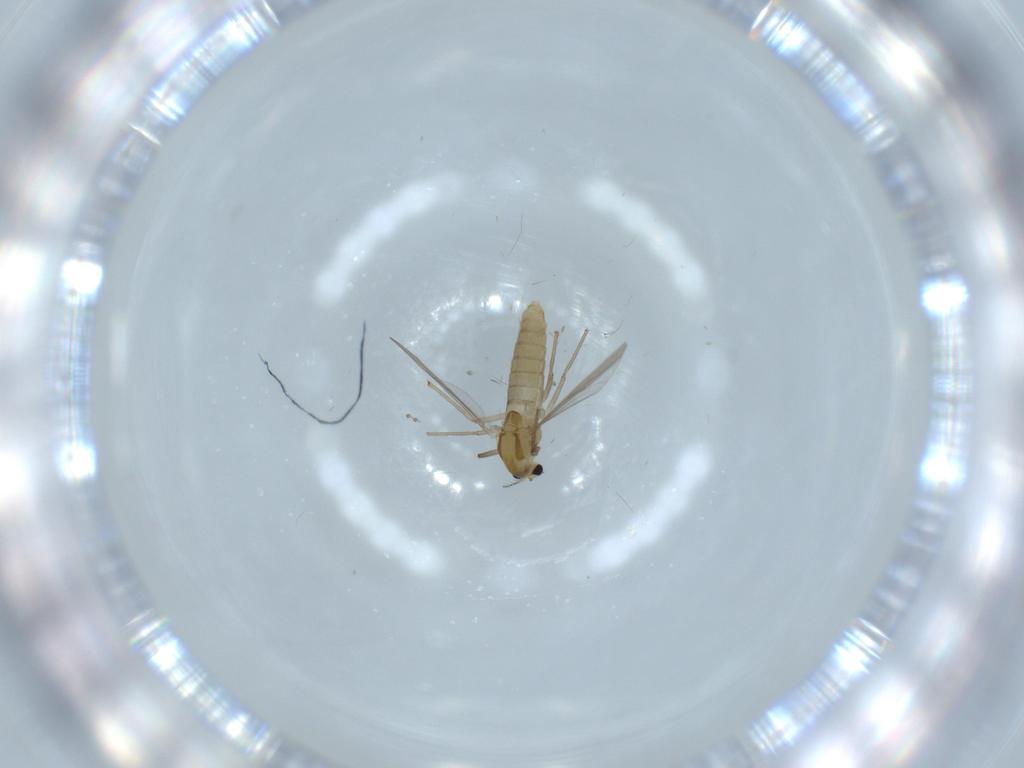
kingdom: Animalia
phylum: Arthropoda
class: Insecta
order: Diptera
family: Chironomidae
